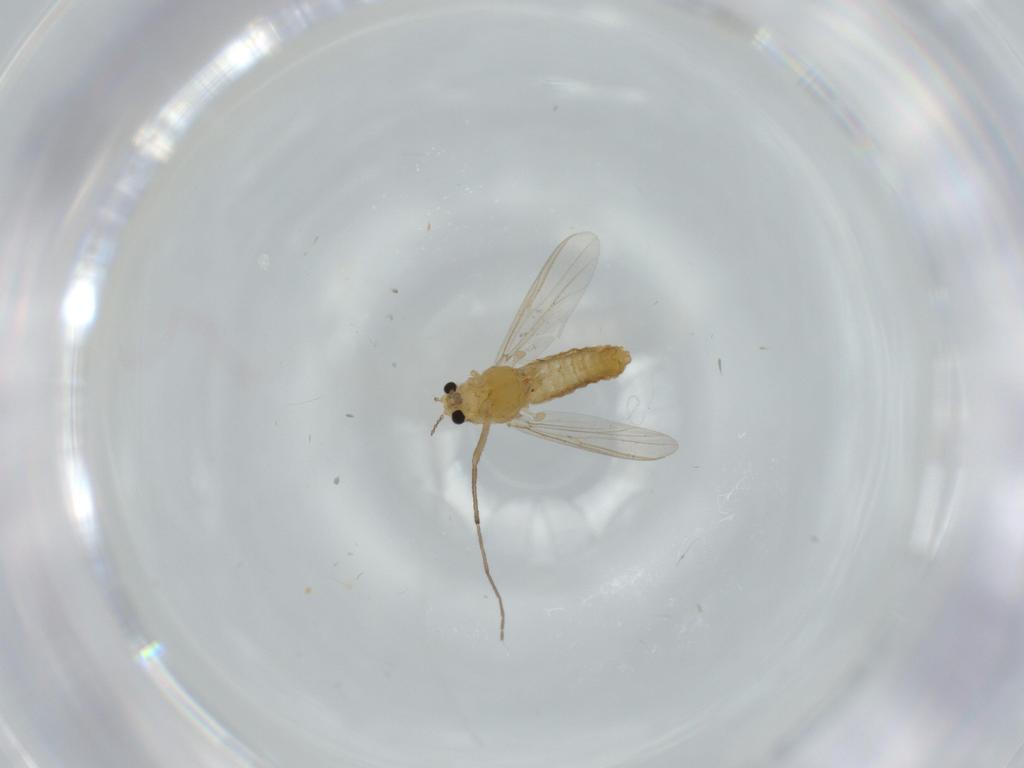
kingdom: Animalia
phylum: Arthropoda
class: Insecta
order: Diptera
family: Chironomidae
